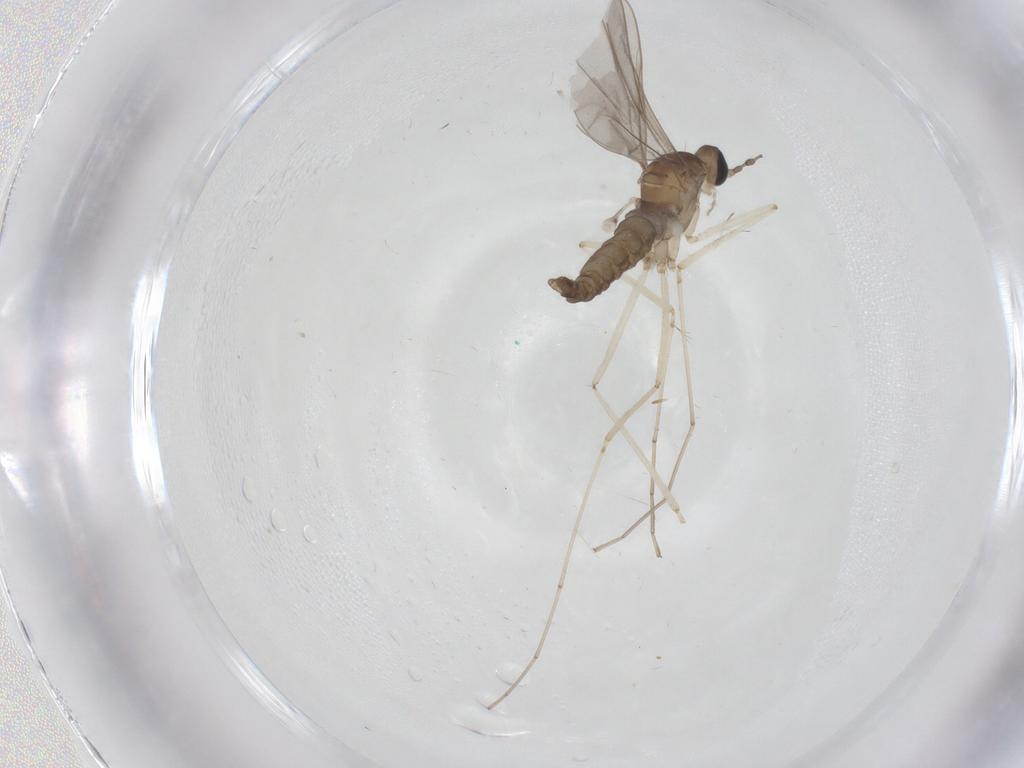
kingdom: Animalia
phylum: Arthropoda
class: Insecta
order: Diptera
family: Cecidomyiidae
